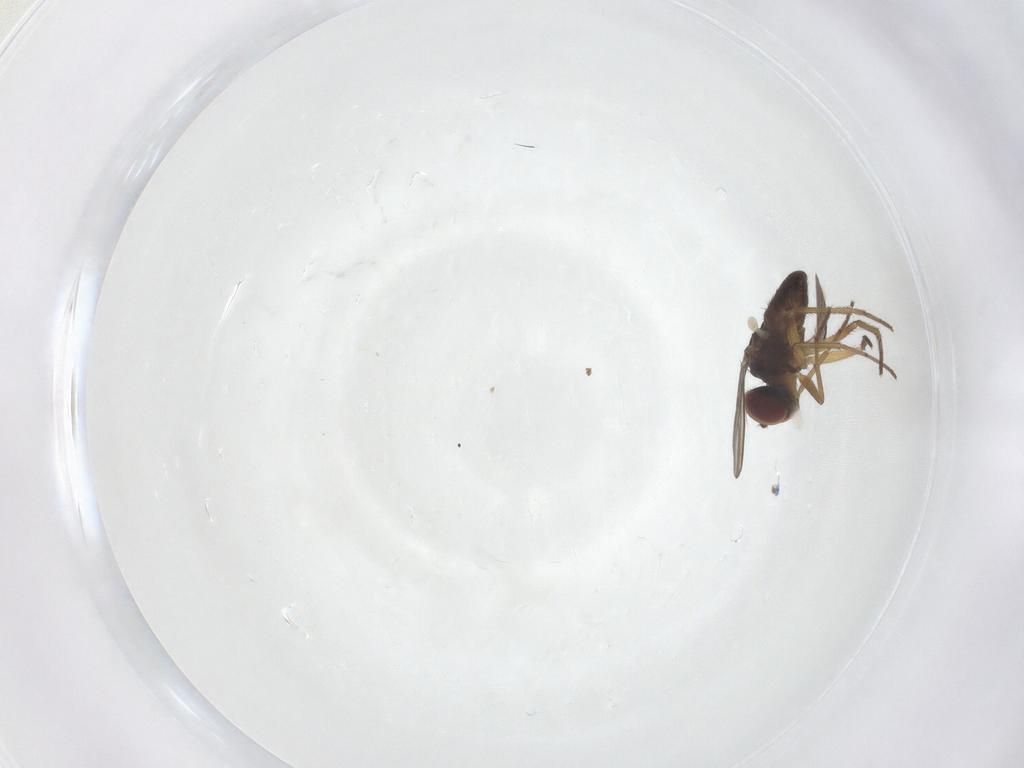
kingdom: Animalia
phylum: Arthropoda
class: Insecta
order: Diptera
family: Dolichopodidae
